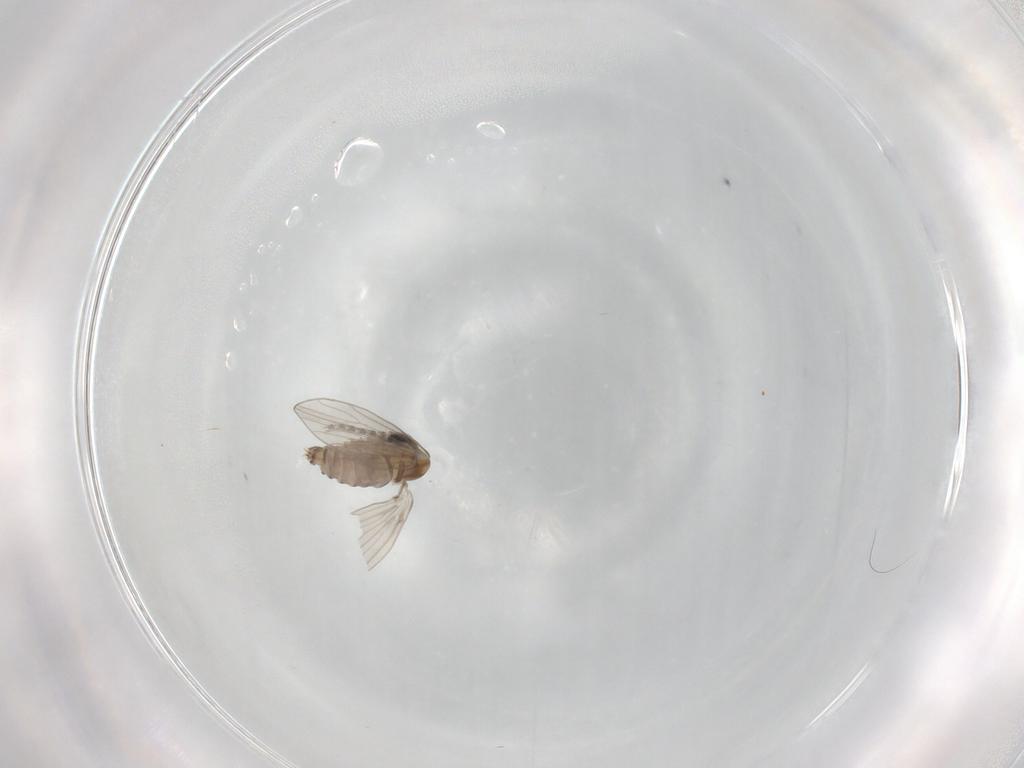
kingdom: Animalia
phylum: Arthropoda
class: Insecta
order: Diptera
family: Psychodidae
